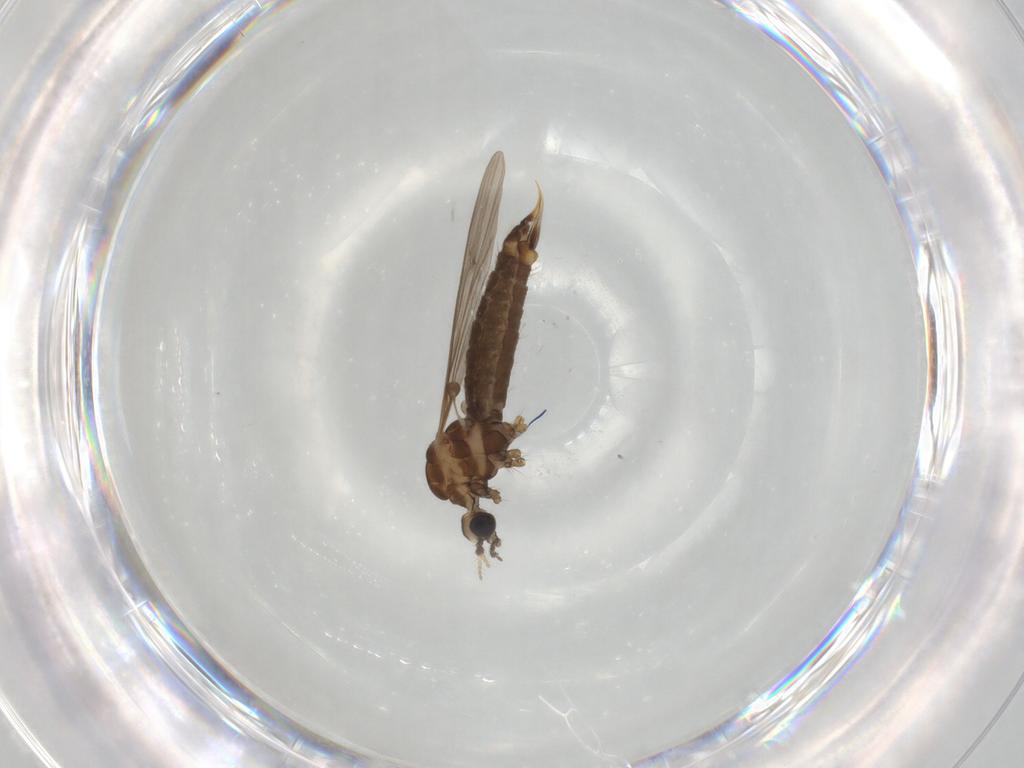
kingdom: Animalia
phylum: Arthropoda
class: Insecta
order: Diptera
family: Limoniidae
